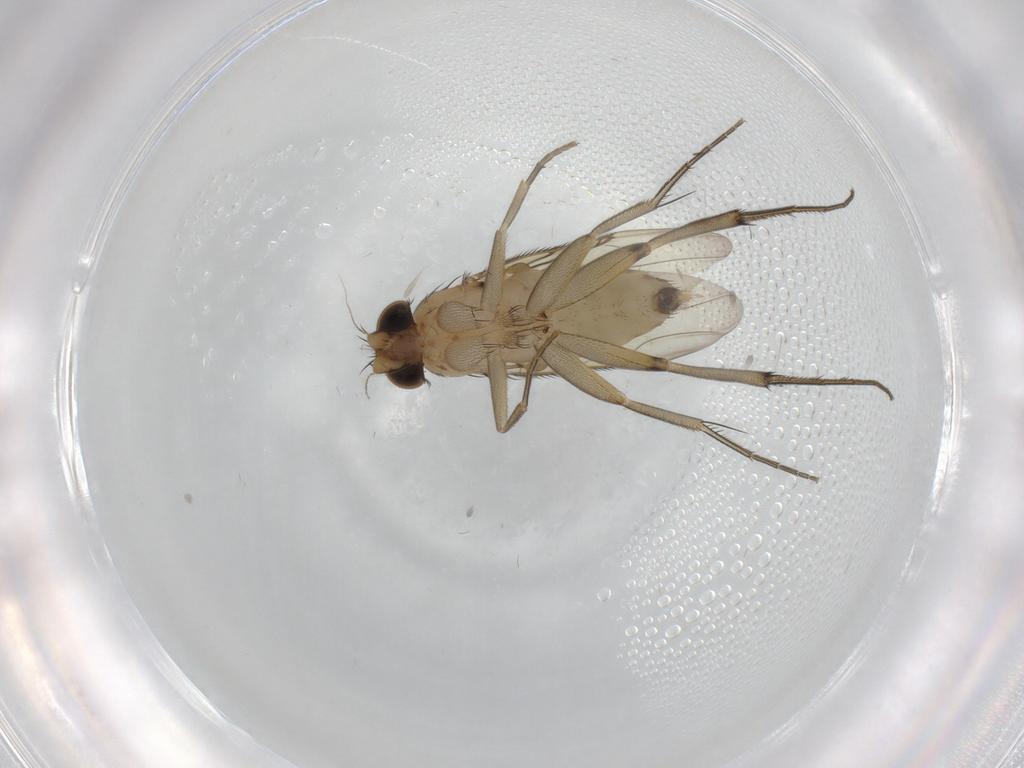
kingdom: Animalia
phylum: Arthropoda
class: Insecta
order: Diptera
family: Phoridae
